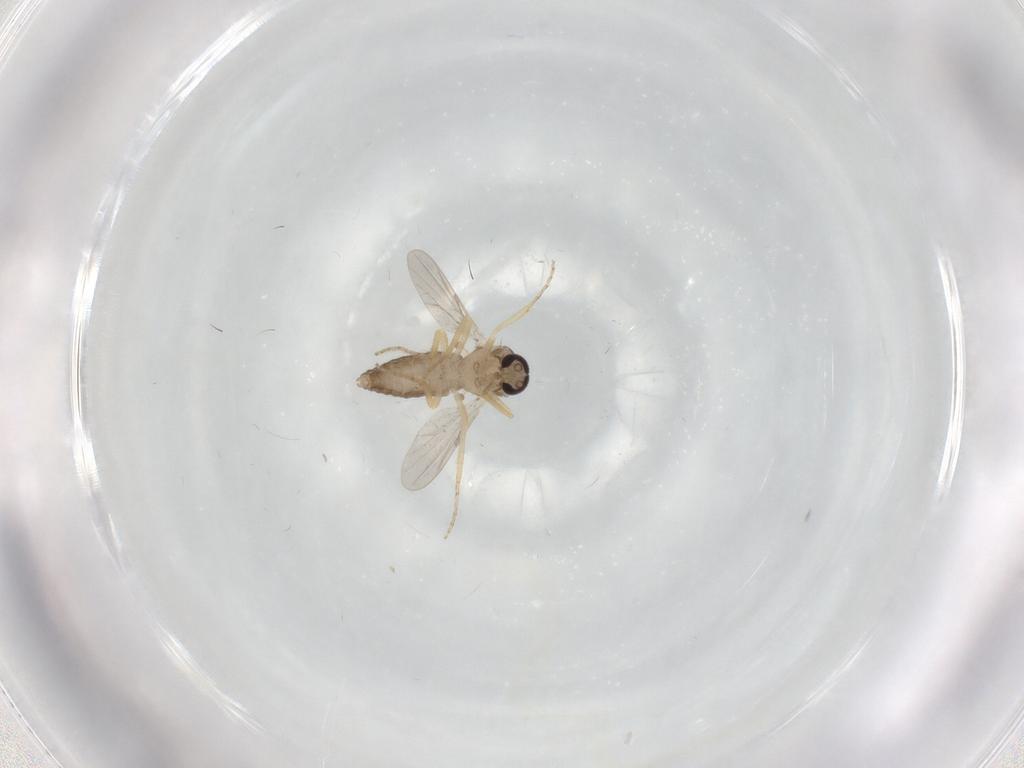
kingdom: Animalia
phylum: Arthropoda
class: Insecta
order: Diptera
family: Ceratopogonidae
